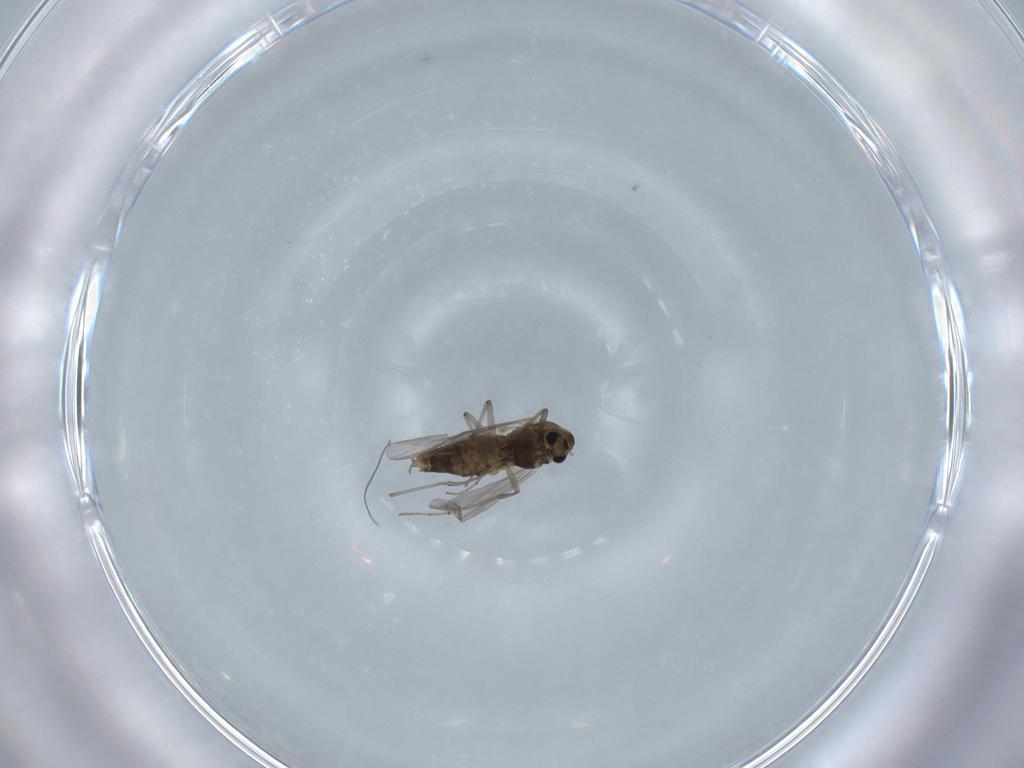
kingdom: Animalia
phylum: Arthropoda
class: Insecta
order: Diptera
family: Chironomidae
